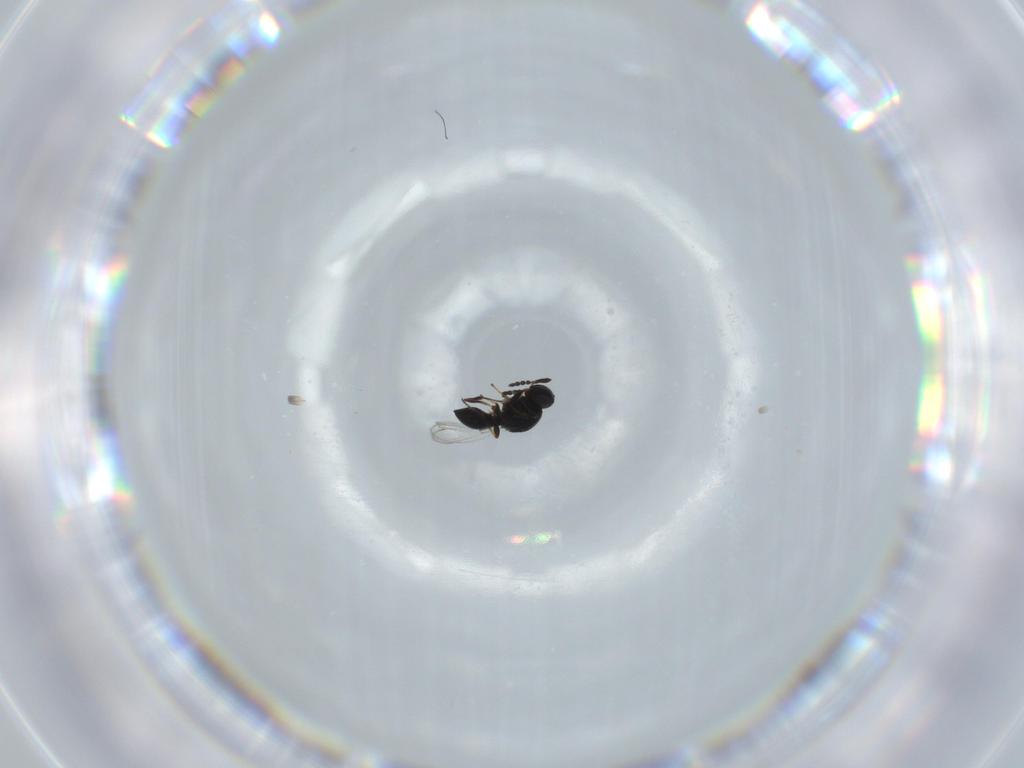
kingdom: Animalia
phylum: Arthropoda
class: Insecta
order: Hymenoptera
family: Platygastridae
